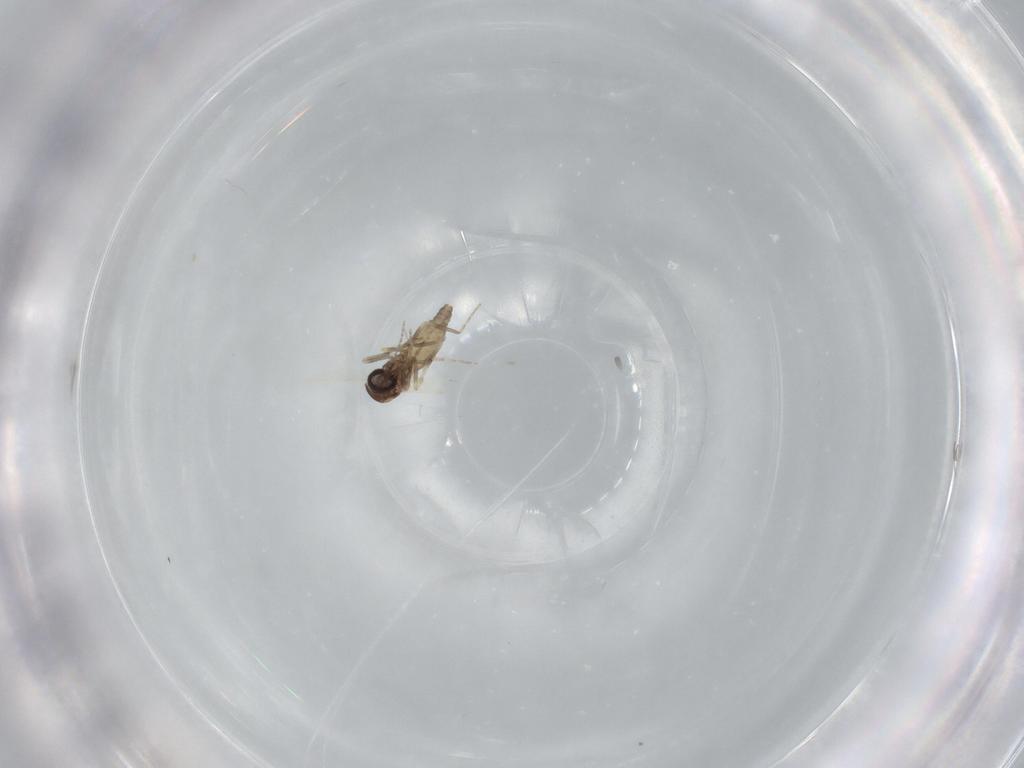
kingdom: Animalia
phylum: Arthropoda
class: Insecta
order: Diptera
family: Ceratopogonidae
